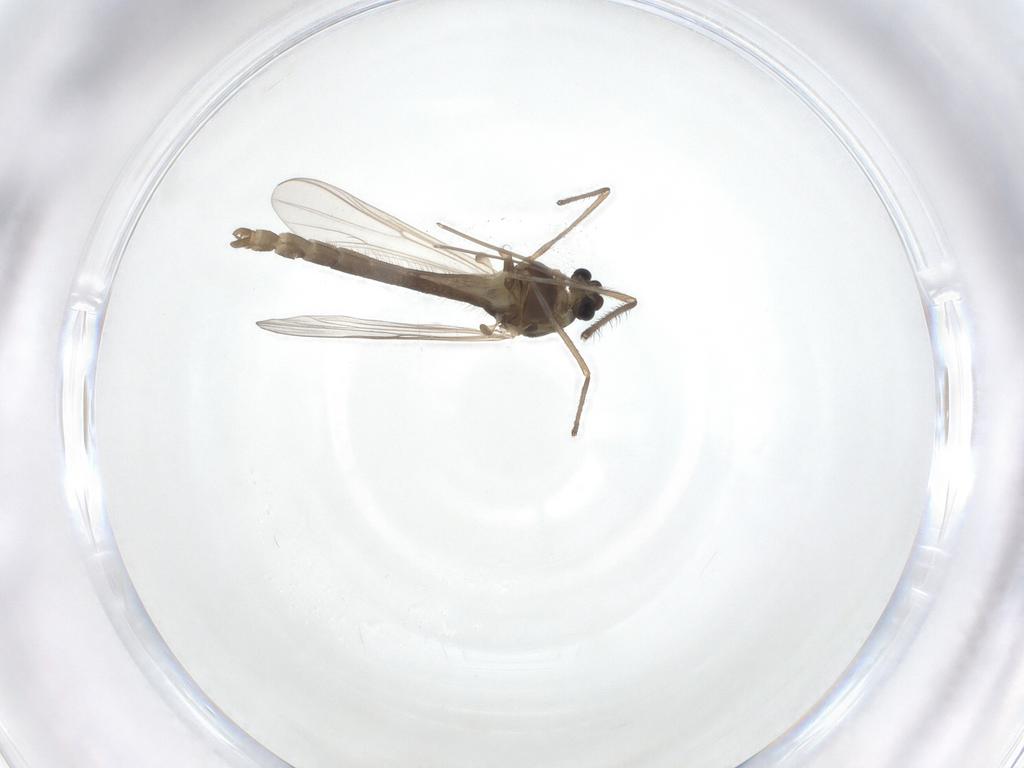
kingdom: Animalia
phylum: Arthropoda
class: Insecta
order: Diptera
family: Chironomidae
